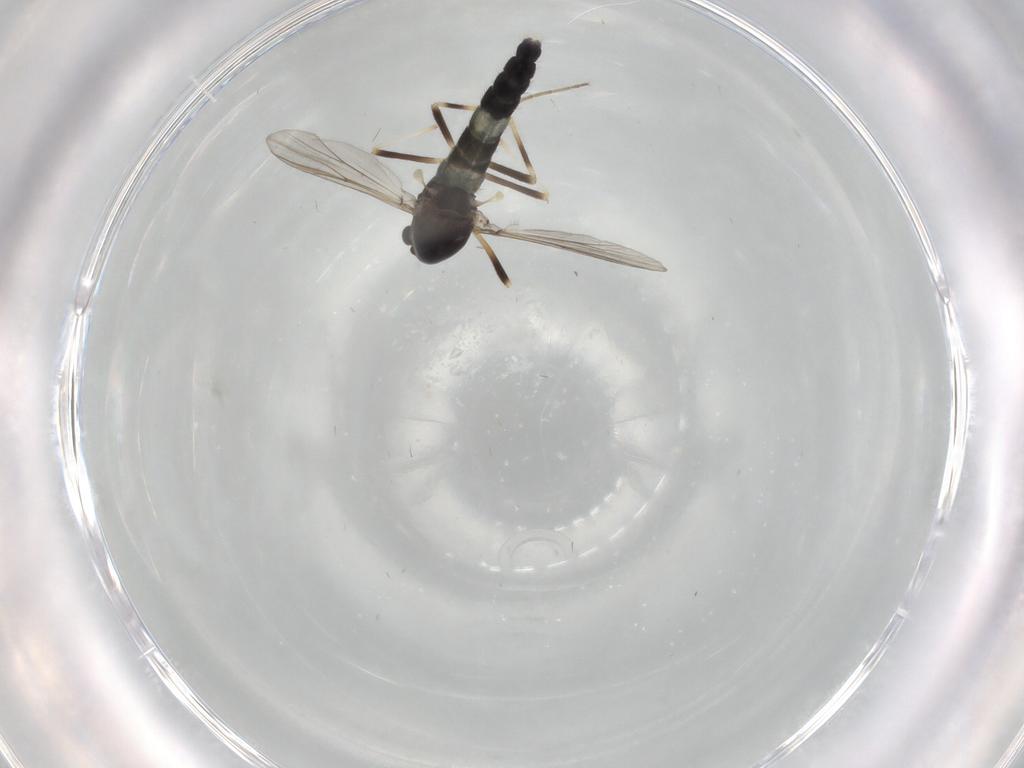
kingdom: Animalia
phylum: Arthropoda
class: Insecta
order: Diptera
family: Chironomidae
